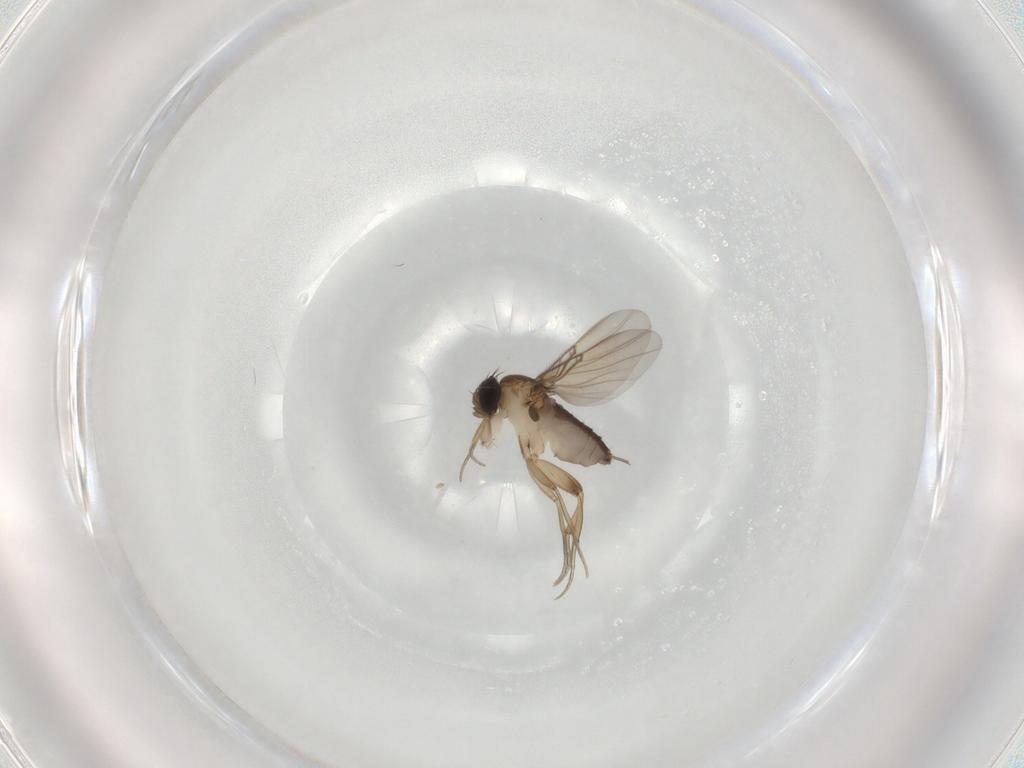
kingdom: Animalia
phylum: Arthropoda
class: Insecta
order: Diptera
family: Phoridae
